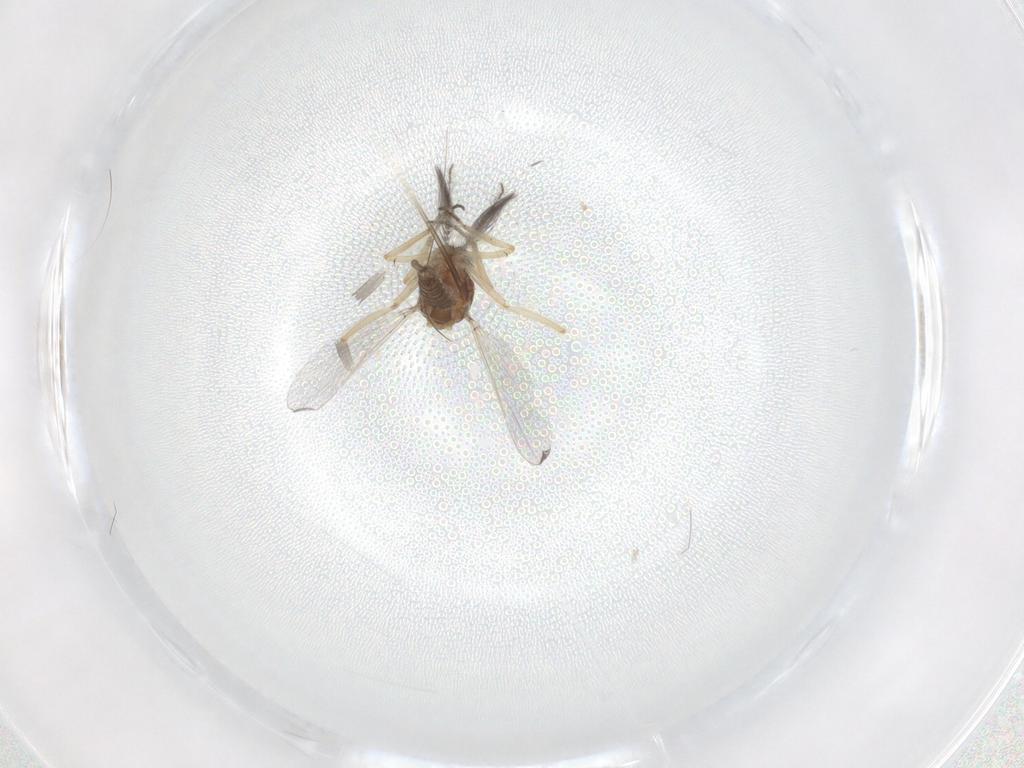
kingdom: Animalia
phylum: Arthropoda
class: Insecta
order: Diptera
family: Ceratopogonidae
